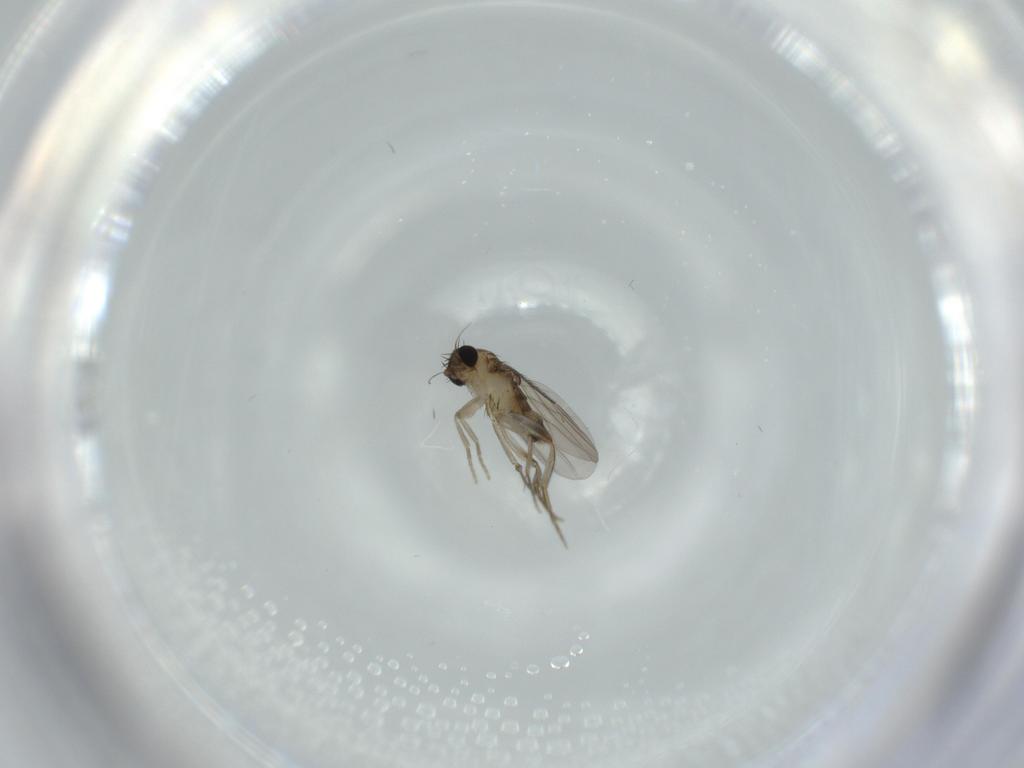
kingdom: Animalia
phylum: Arthropoda
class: Insecta
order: Diptera
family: Phoridae
